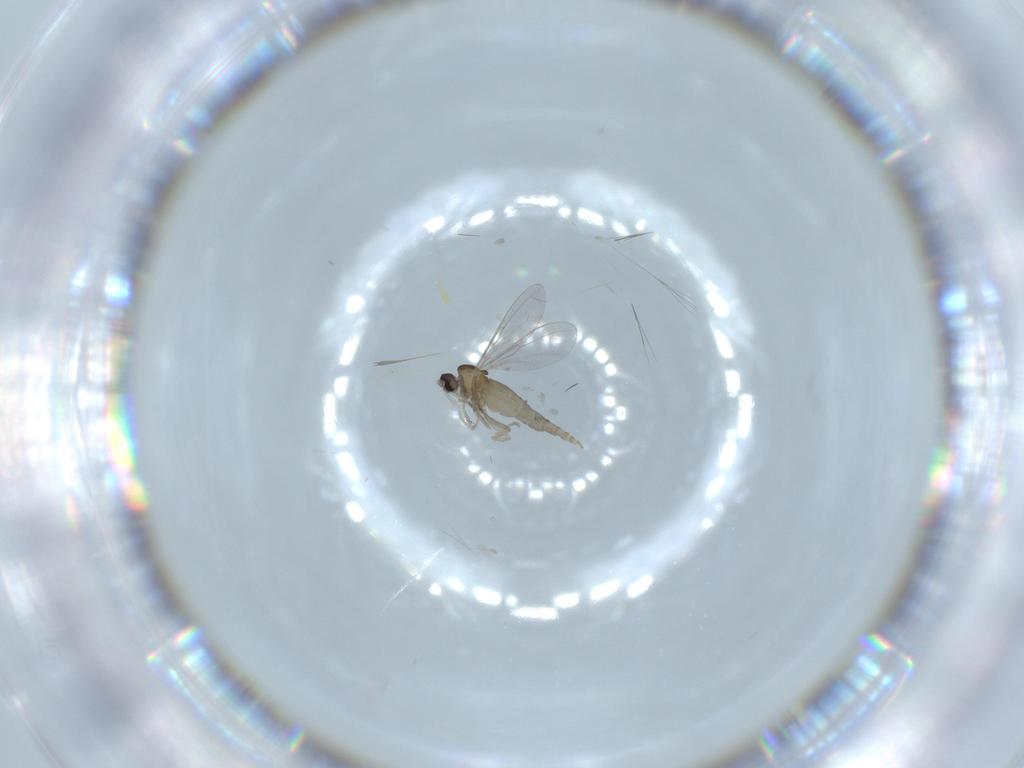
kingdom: Animalia
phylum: Arthropoda
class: Insecta
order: Diptera
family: Cecidomyiidae
